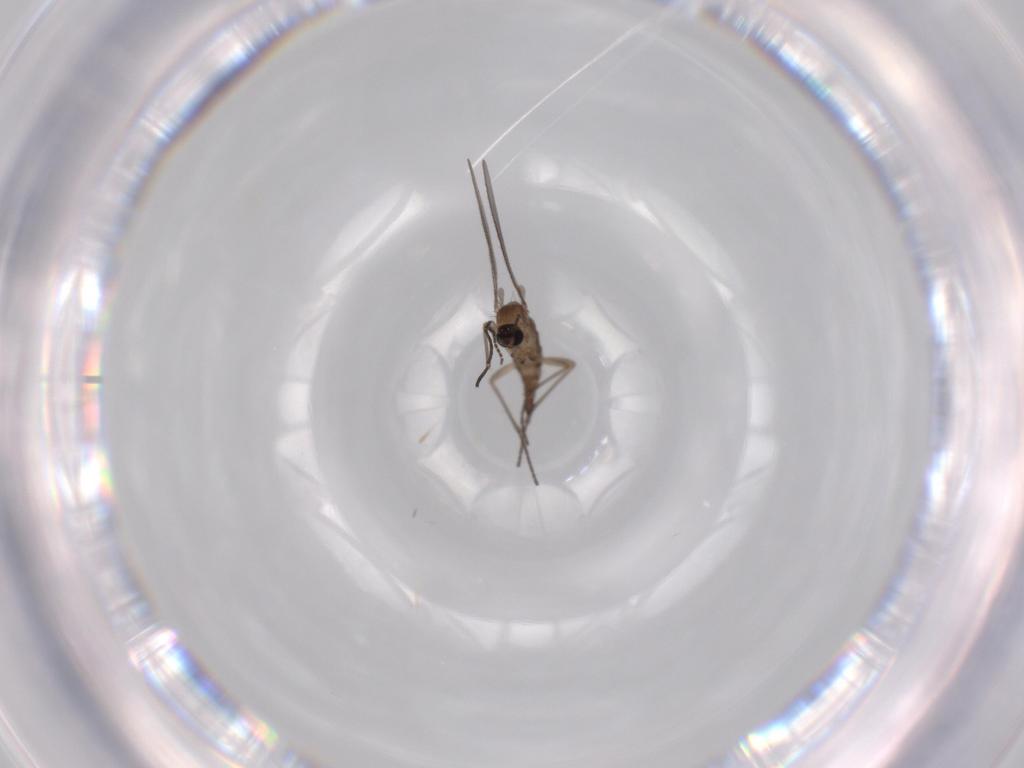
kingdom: Animalia
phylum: Arthropoda
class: Insecta
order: Diptera
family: Sciaridae
